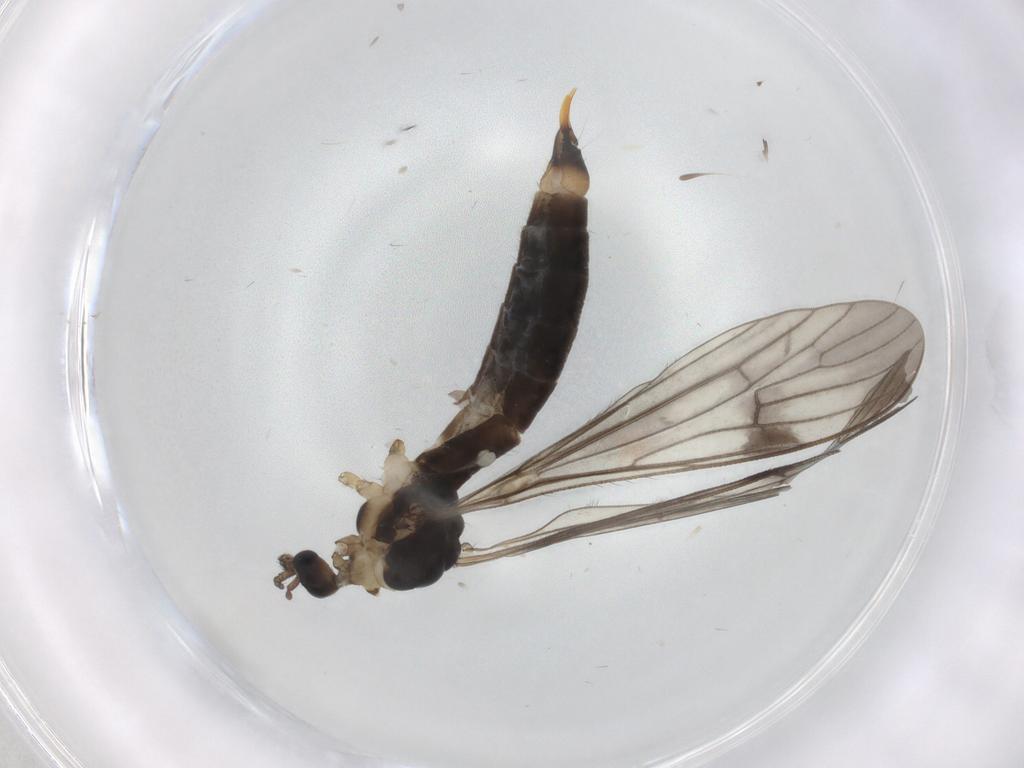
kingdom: Animalia
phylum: Arthropoda
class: Insecta
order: Diptera
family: Limoniidae
